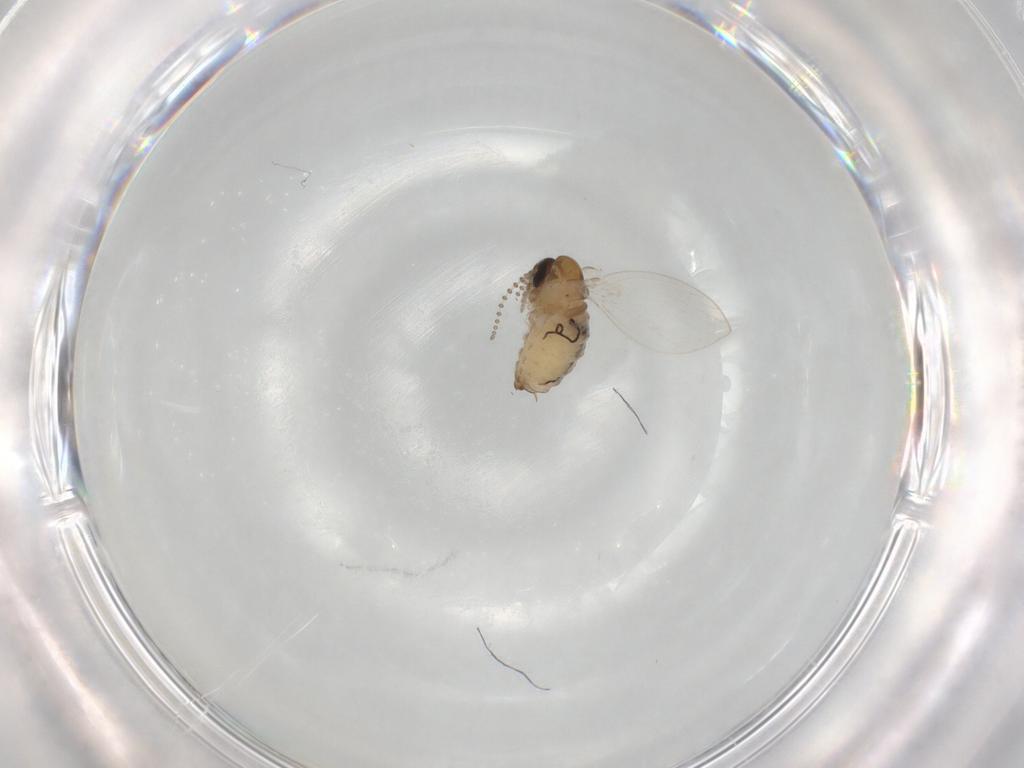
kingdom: Animalia
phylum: Arthropoda
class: Insecta
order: Diptera
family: Psychodidae
